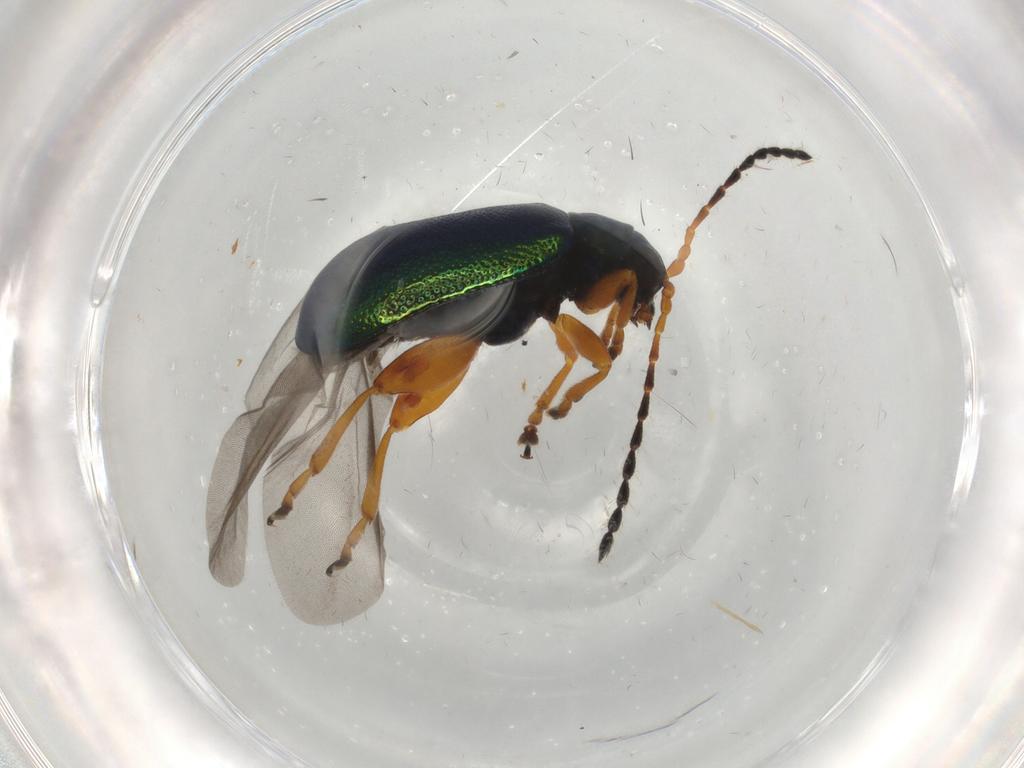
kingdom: Animalia
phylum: Arthropoda
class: Insecta
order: Coleoptera
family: Chrysomelidae
